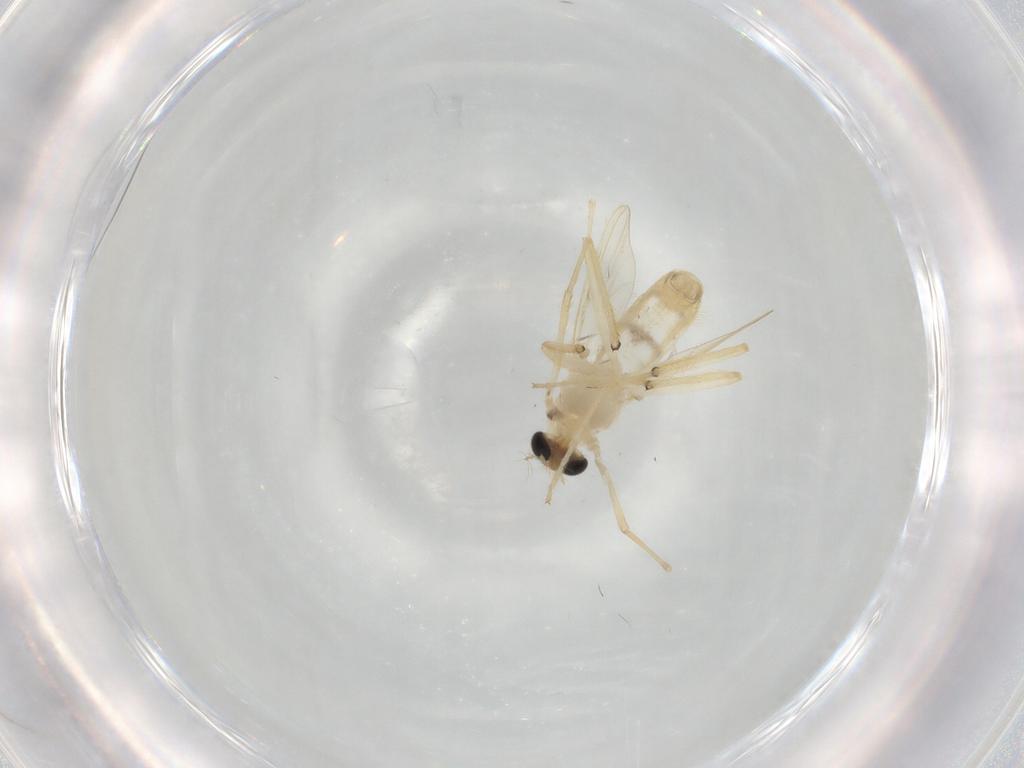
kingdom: Animalia
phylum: Arthropoda
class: Insecta
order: Diptera
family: Chironomidae
